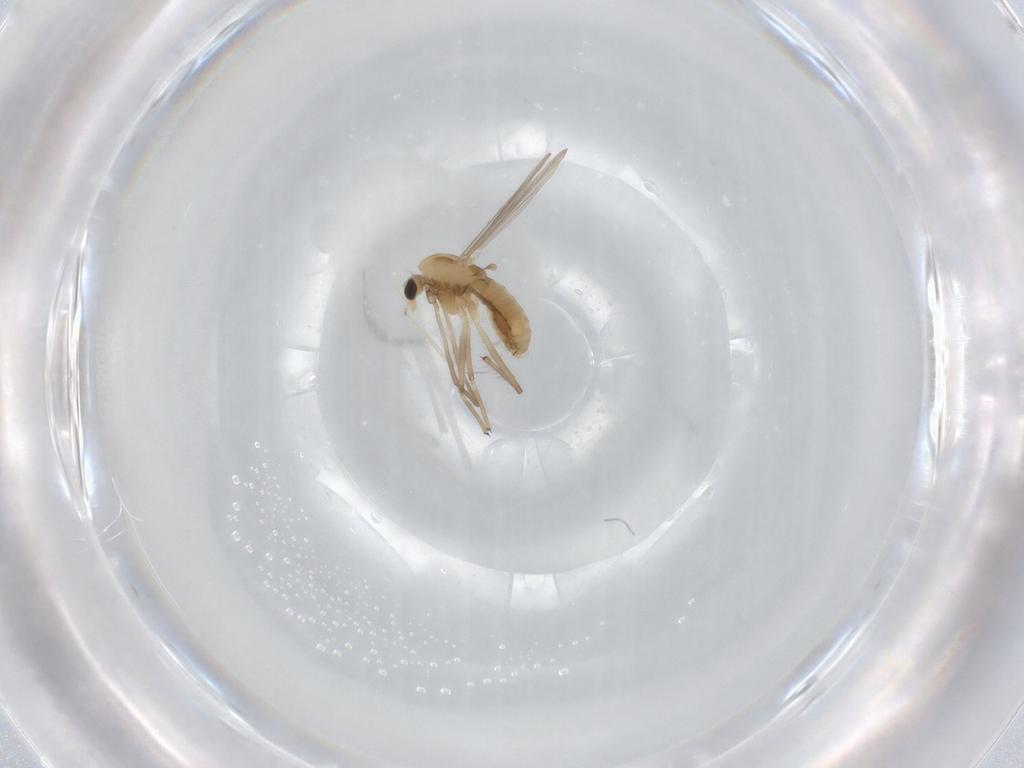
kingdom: Animalia
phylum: Arthropoda
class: Insecta
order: Diptera
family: Chironomidae
